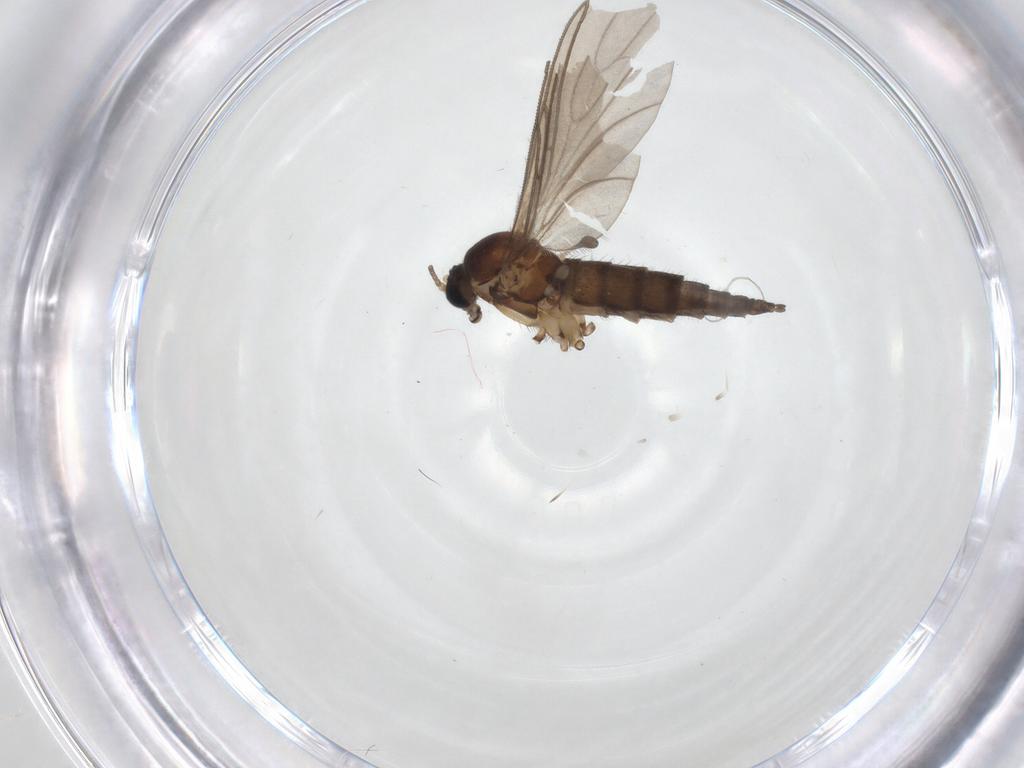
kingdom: Animalia
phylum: Arthropoda
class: Insecta
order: Diptera
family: Sciaridae
